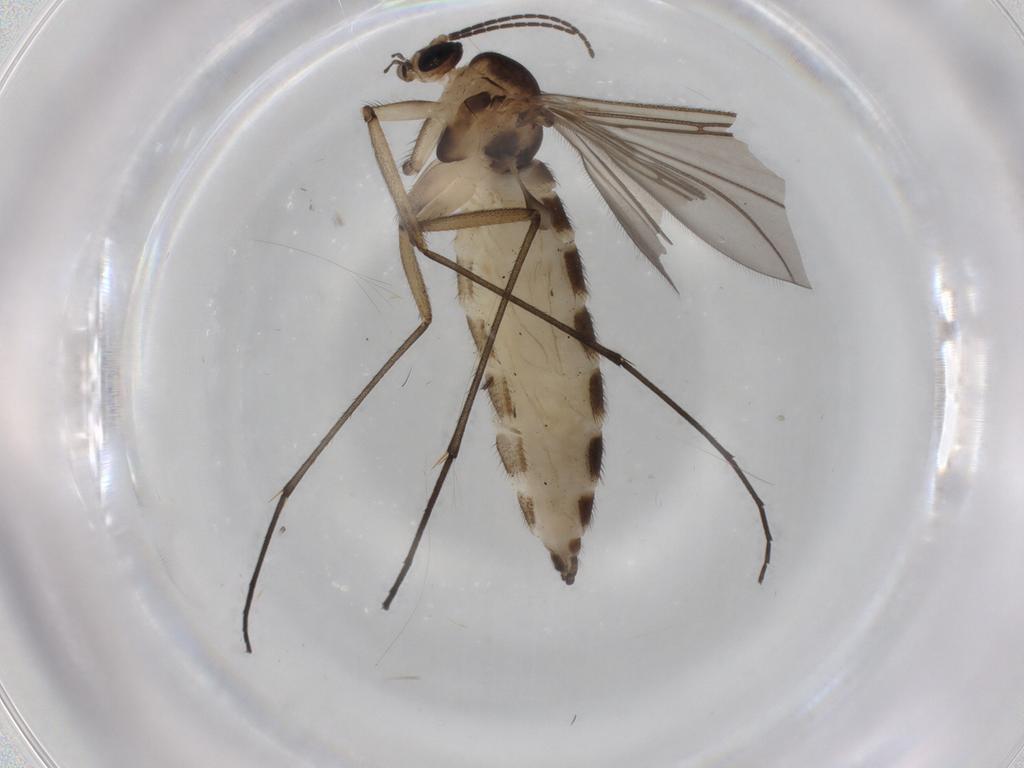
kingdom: Animalia
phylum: Arthropoda
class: Insecta
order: Diptera
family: Sciaridae
